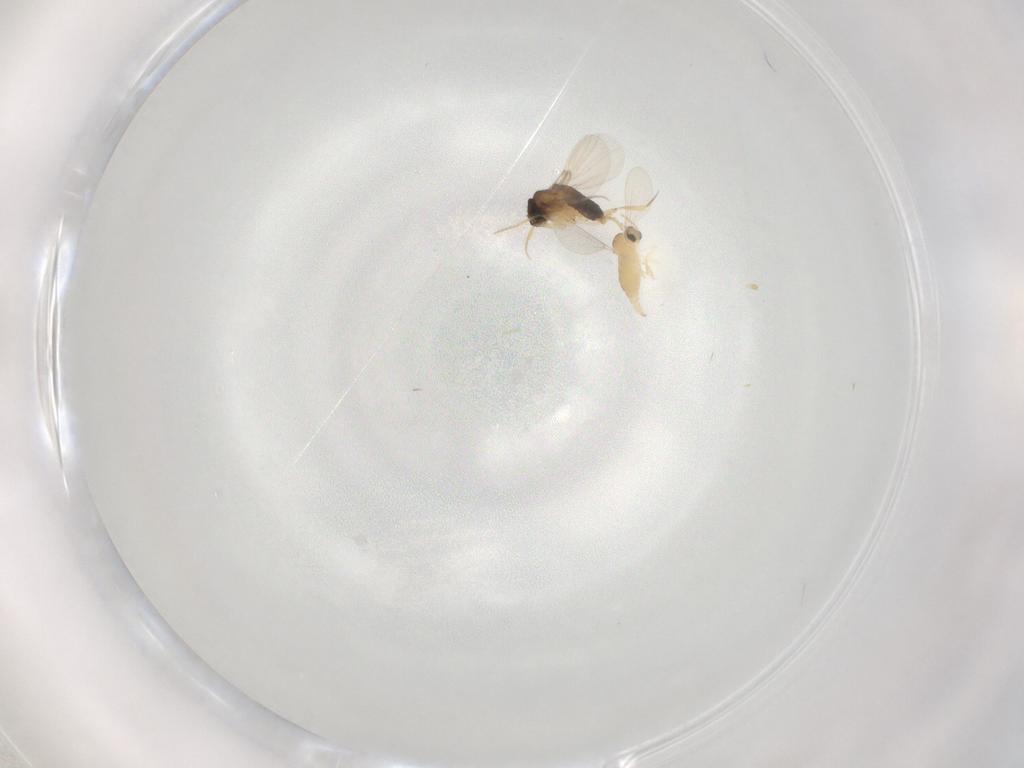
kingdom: Animalia
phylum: Arthropoda
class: Insecta
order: Diptera
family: Cecidomyiidae
